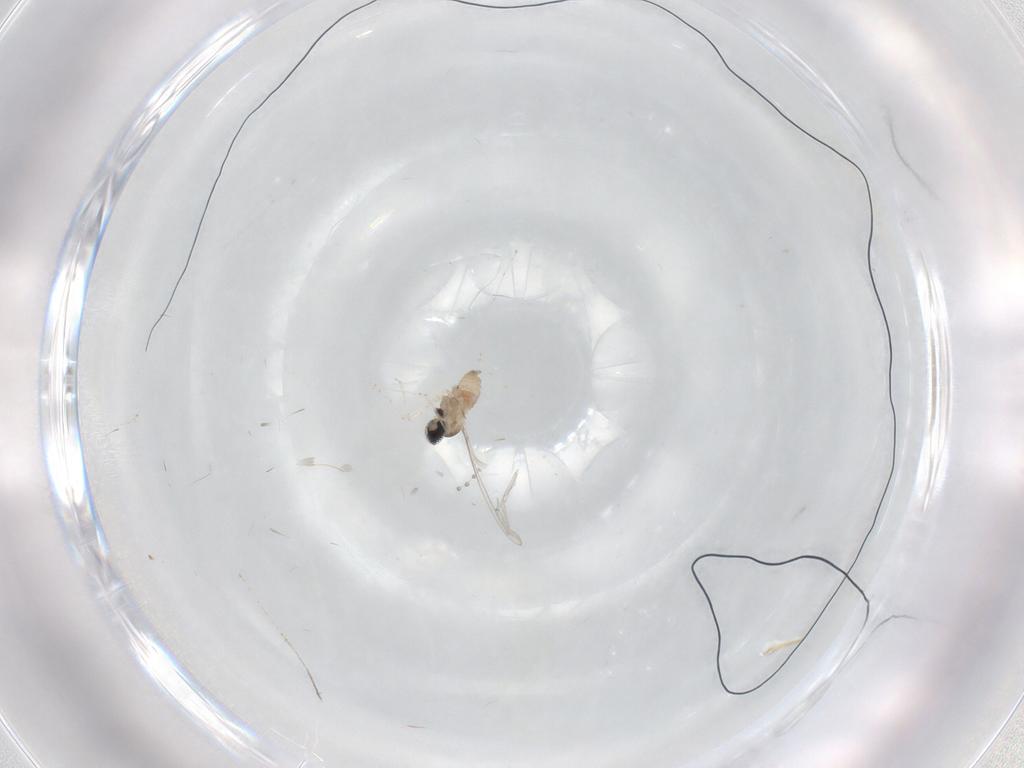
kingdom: Animalia
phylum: Arthropoda
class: Insecta
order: Diptera
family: Cecidomyiidae
